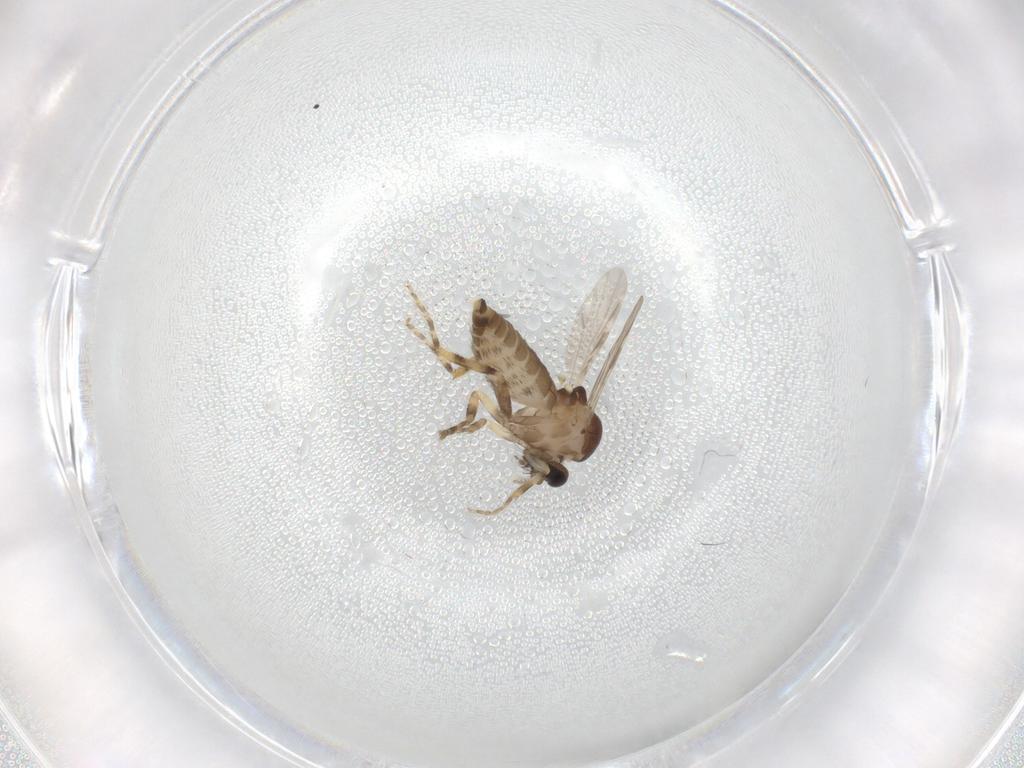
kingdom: Animalia
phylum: Arthropoda
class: Insecta
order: Diptera
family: Ceratopogonidae
